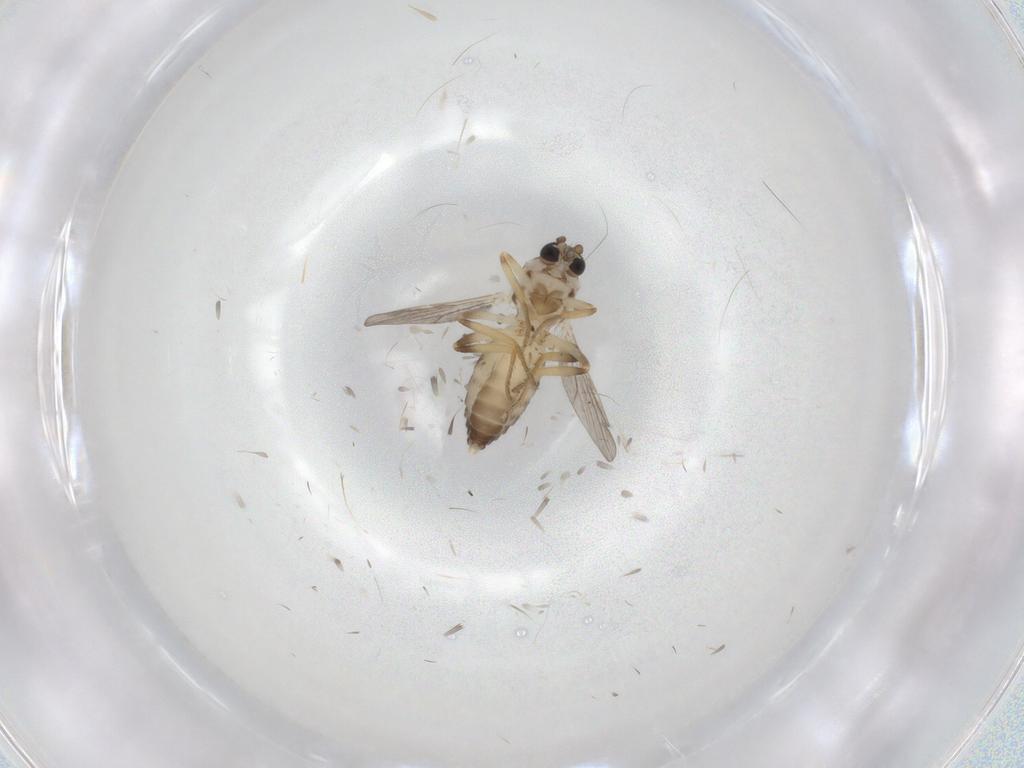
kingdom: Animalia
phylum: Arthropoda
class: Insecta
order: Diptera
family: Ceratopogonidae
